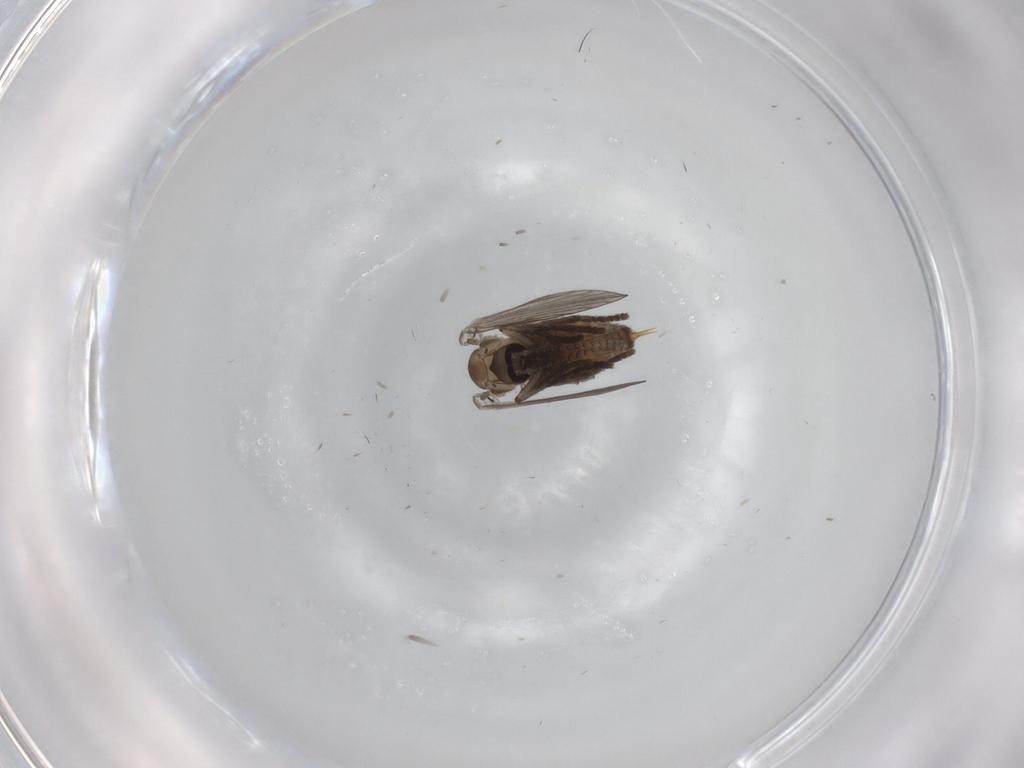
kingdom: Animalia
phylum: Arthropoda
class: Insecta
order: Diptera
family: Psychodidae
